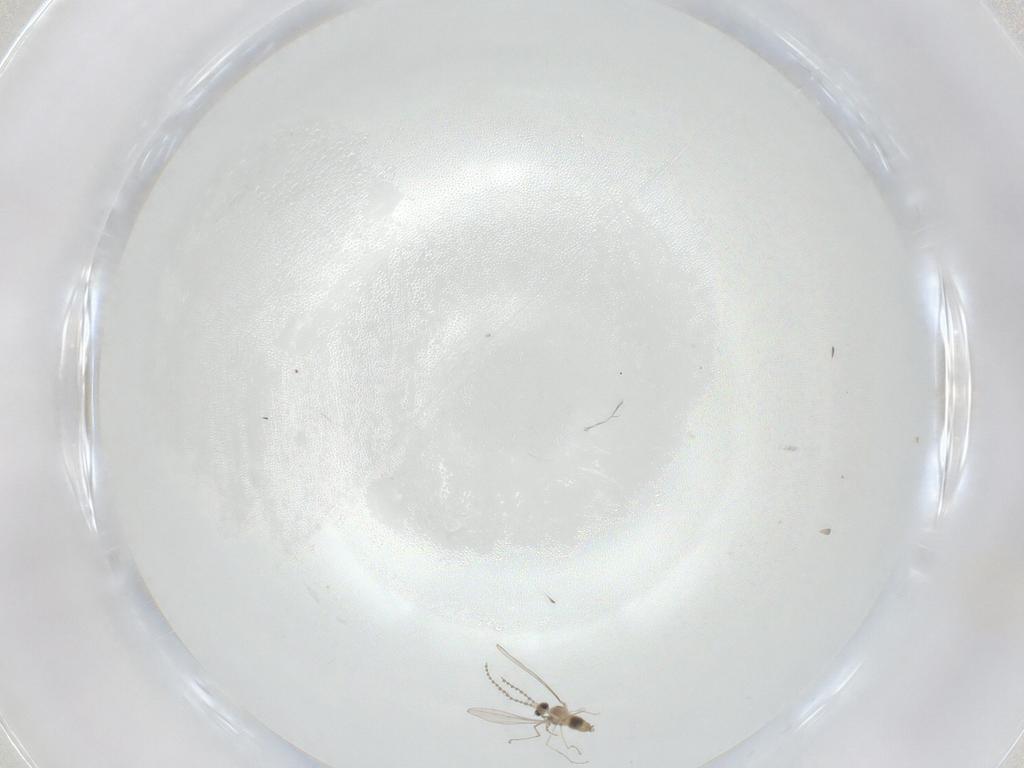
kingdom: Animalia
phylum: Arthropoda
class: Insecta
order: Diptera
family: Cecidomyiidae
